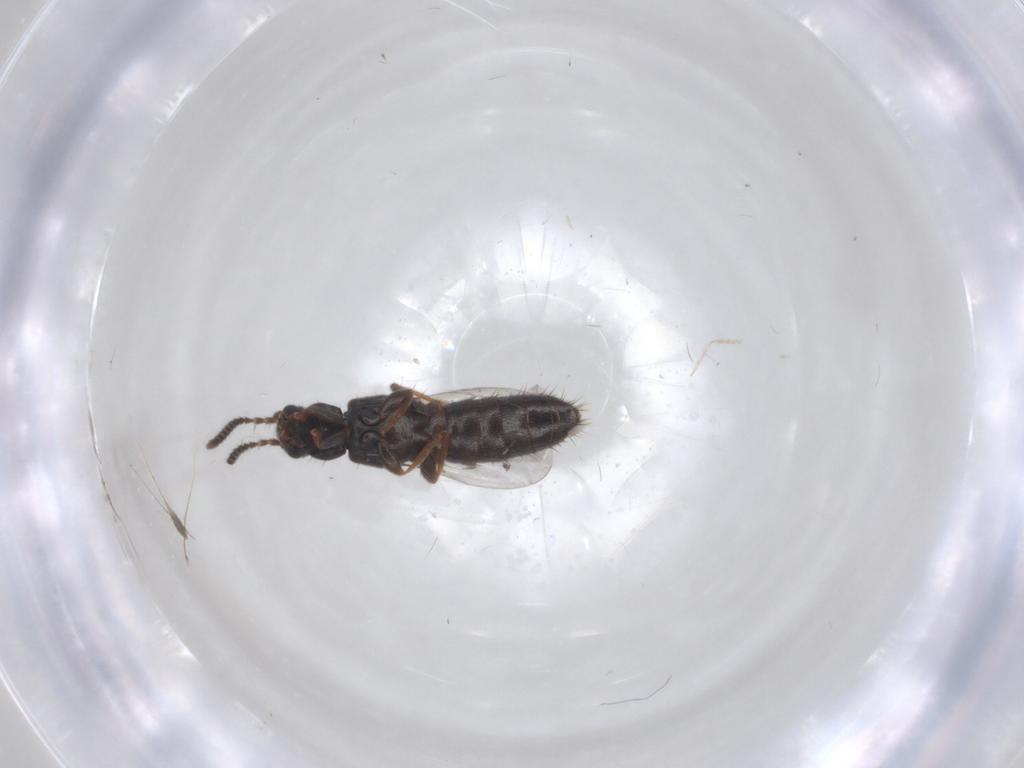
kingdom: Animalia
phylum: Arthropoda
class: Insecta
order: Coleoptera
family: Staphylinidae
